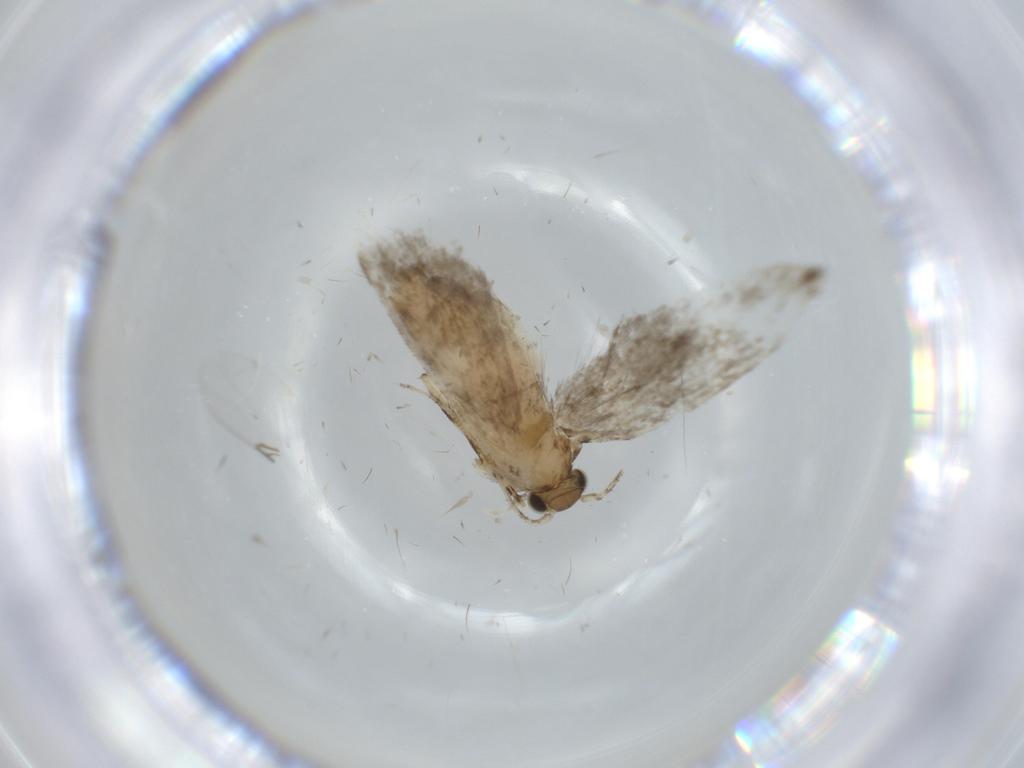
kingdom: Animalia
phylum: Arthropoda
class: Insecta
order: Lepidoptera
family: Tineidae
